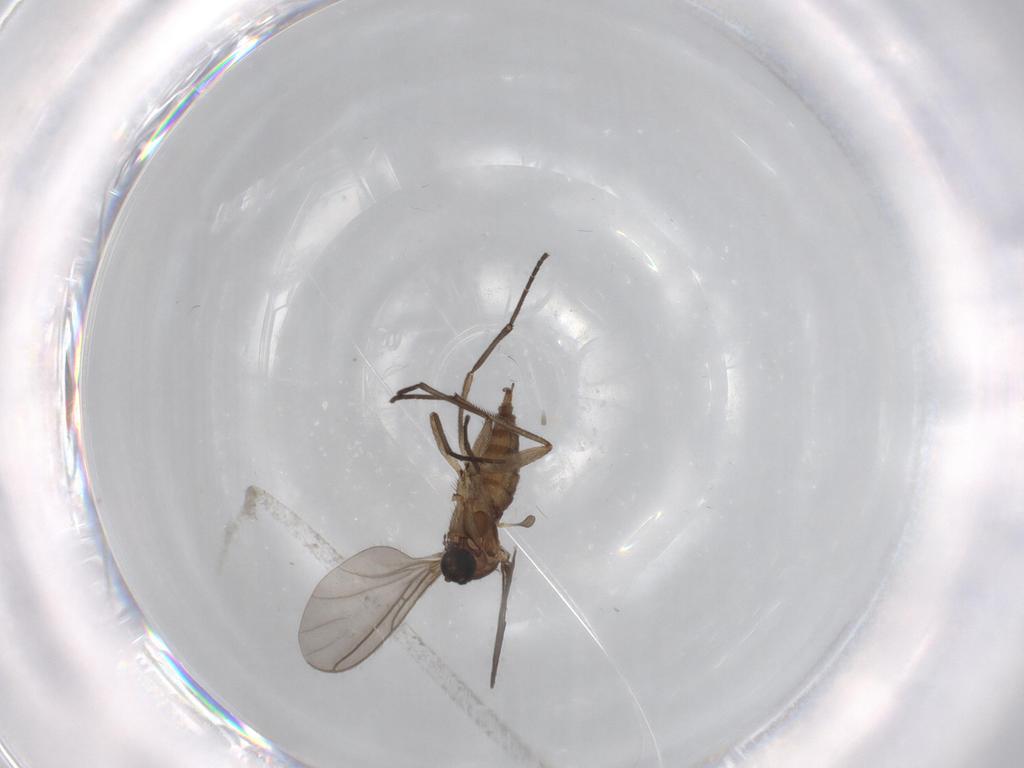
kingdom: Animalia
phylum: Arthropoda
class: Insecta
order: Diptera
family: Sciaridae
